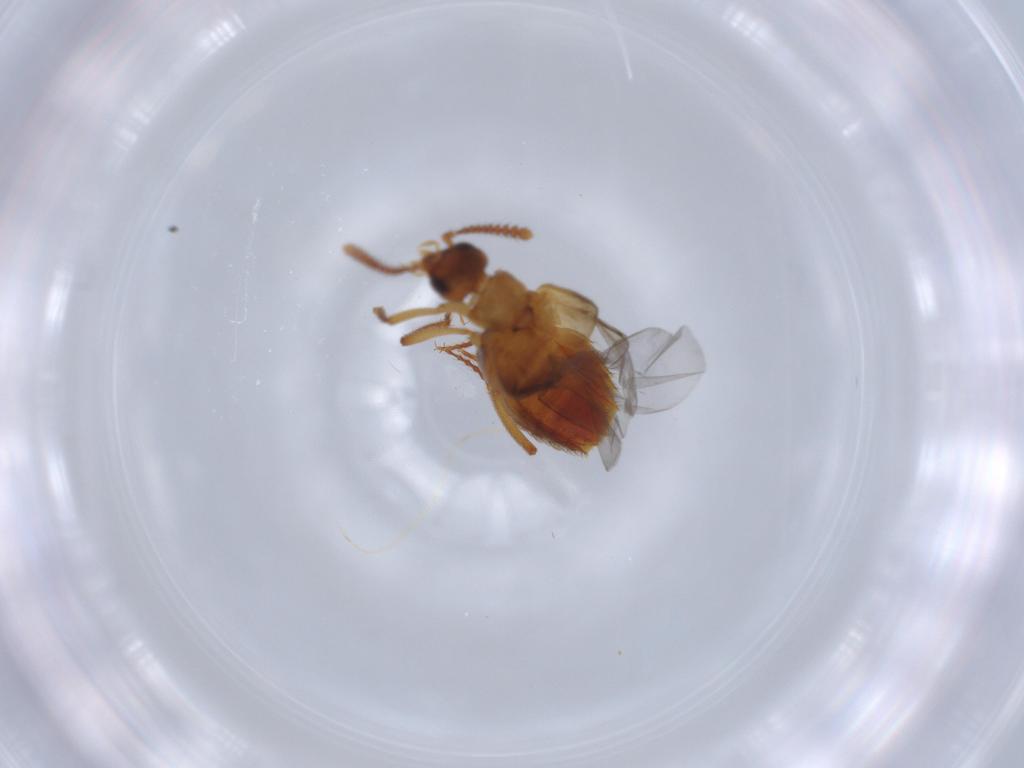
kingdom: Animalia
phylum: Arthropoda
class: Insecta
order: Coleoptera
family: Staphylinidae
